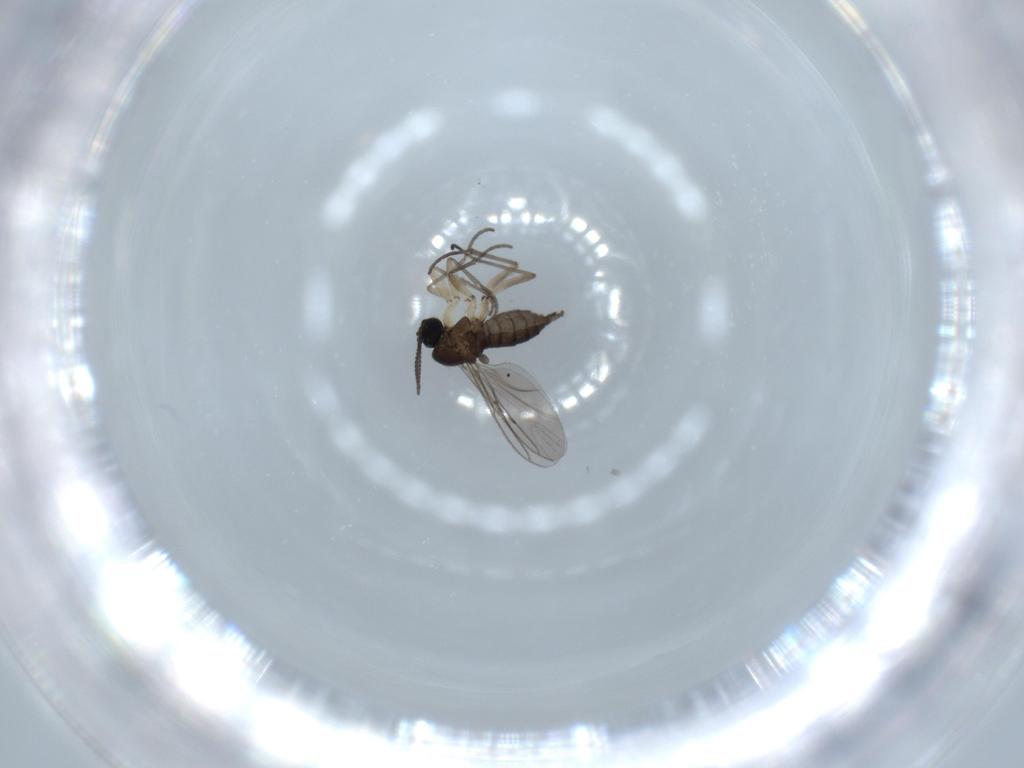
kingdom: Animalia
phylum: Arthropoda
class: Insecta
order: Diptera
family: Sciaridae
